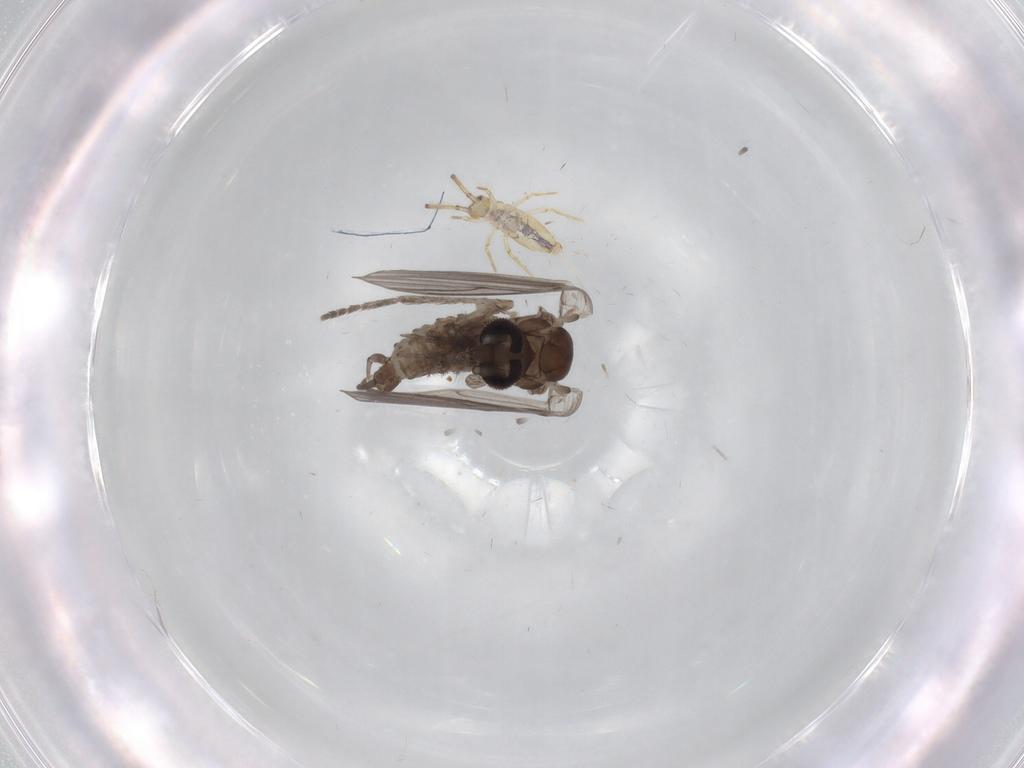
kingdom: Animalia
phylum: Arthropoda
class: Insecta
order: Diptera
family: Psychodidae
